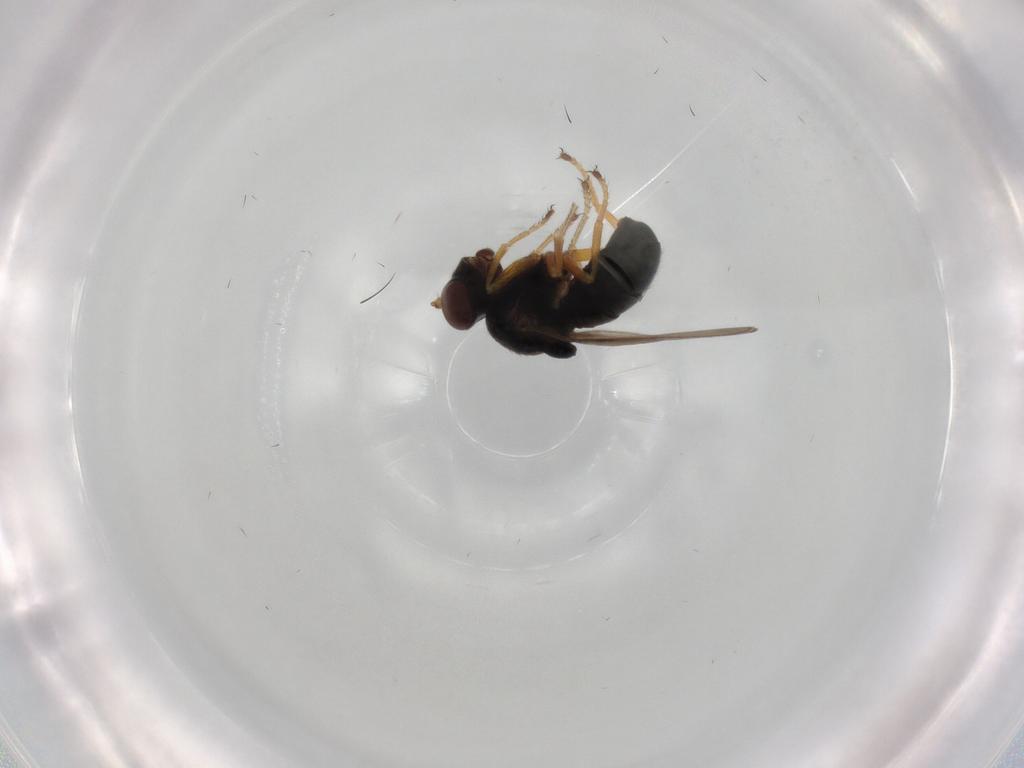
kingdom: Animalia
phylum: Arthropoda
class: Insecta
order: Diptera
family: Ephydridae
